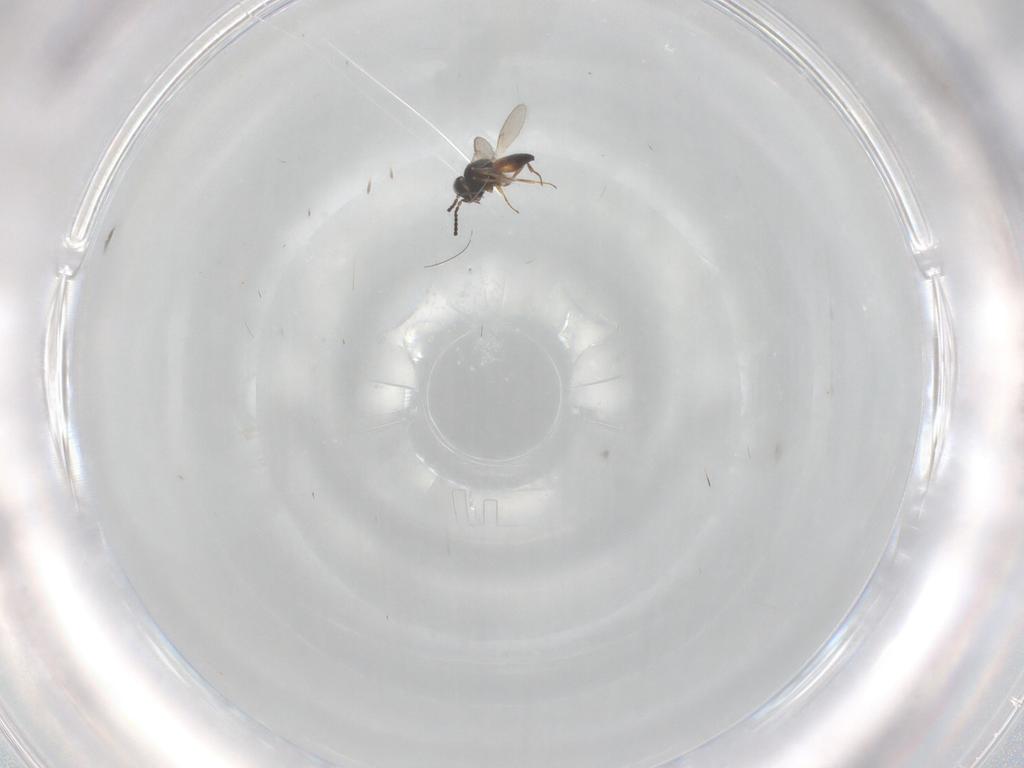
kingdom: Animalia
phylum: Arthropoda
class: Insecta
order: Hymenoptera
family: Scelionidae
